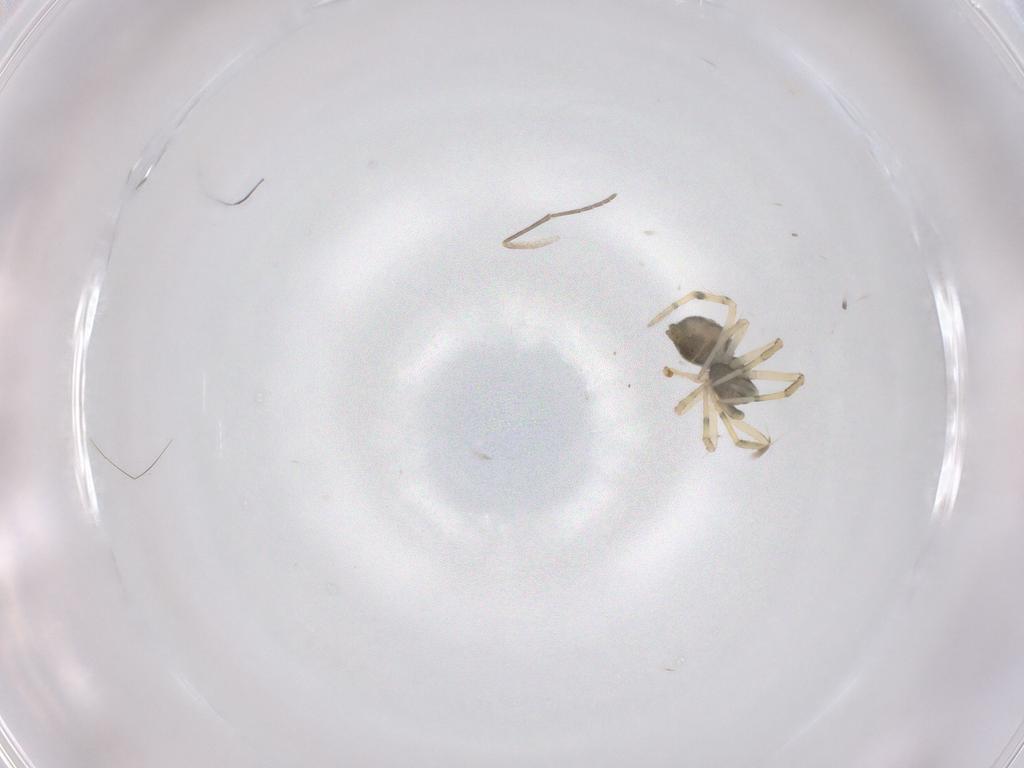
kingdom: Animalia
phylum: Arthropoda
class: Arachnida
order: Araneae
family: Theridiidae
